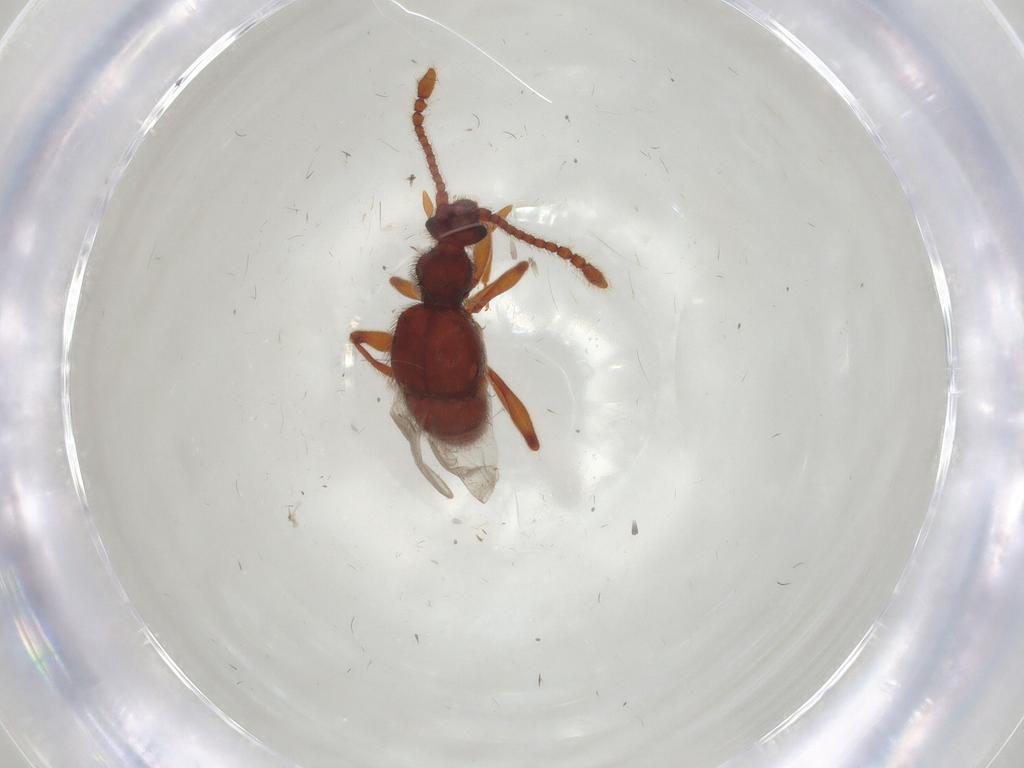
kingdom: Animalia
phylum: Arthropoda
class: Insecta
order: Coleoptera
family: Staphylinidae
